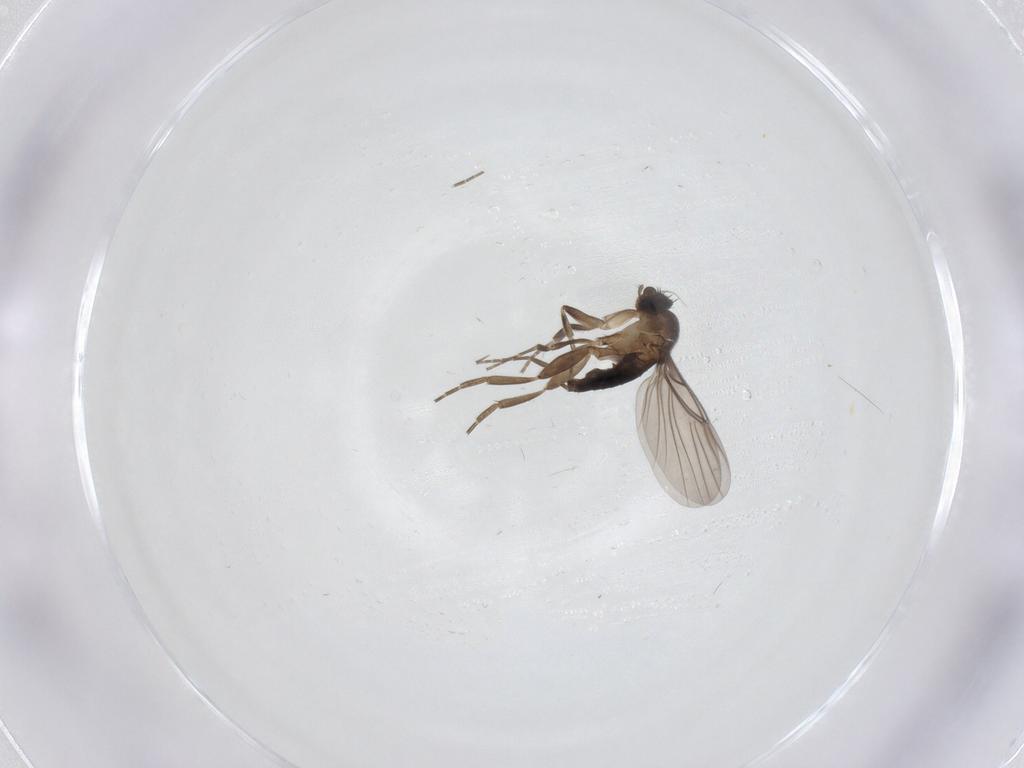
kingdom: Animalia
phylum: Arthropoda
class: Insecta
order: Diptera
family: Phoridae
